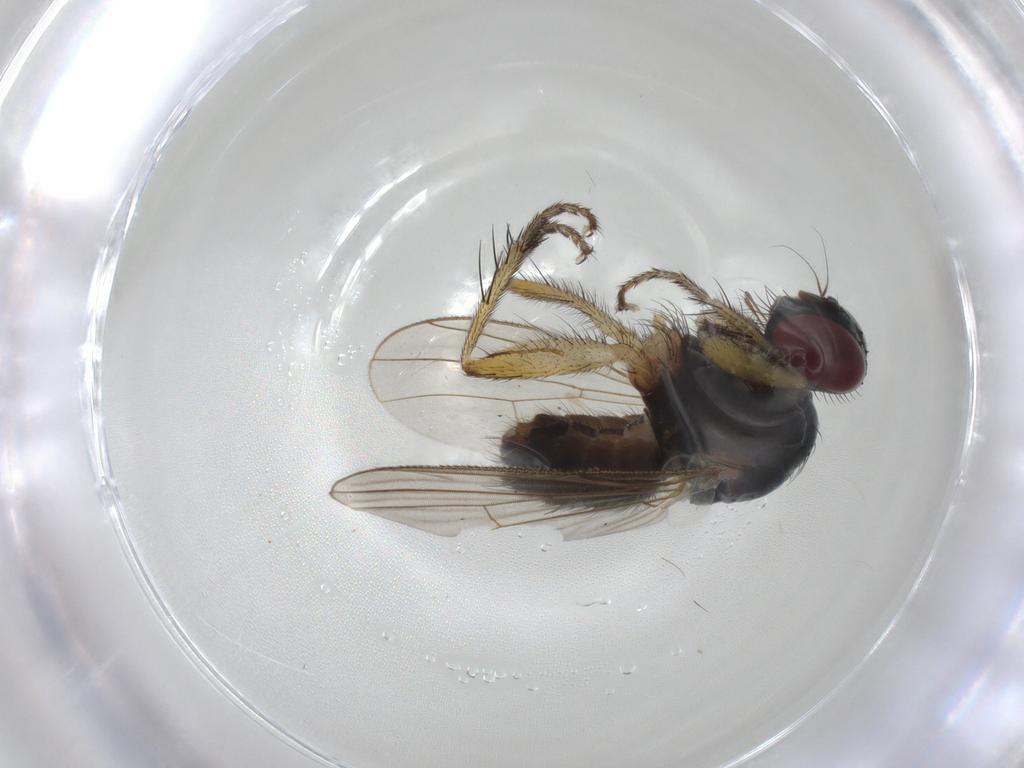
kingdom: Animalia
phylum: Arthropoda
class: Insecta
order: Diptera
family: Muscidae
